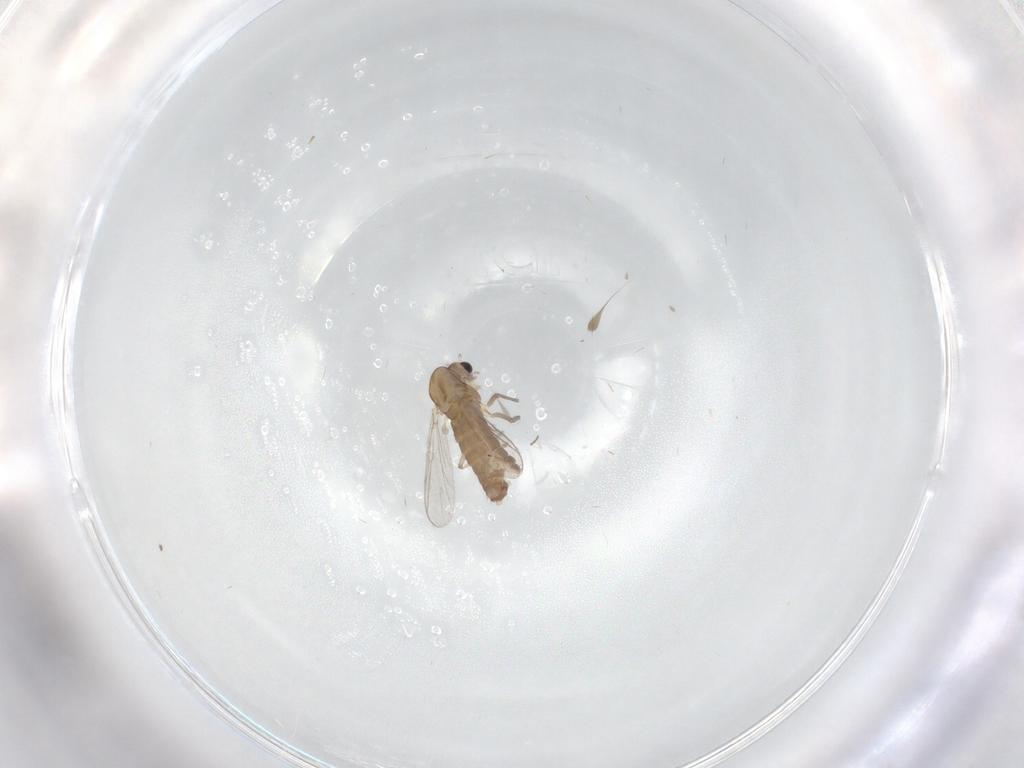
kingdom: Animalia
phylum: Arthropoda
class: Insecta
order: Diptera
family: Chironomidae
